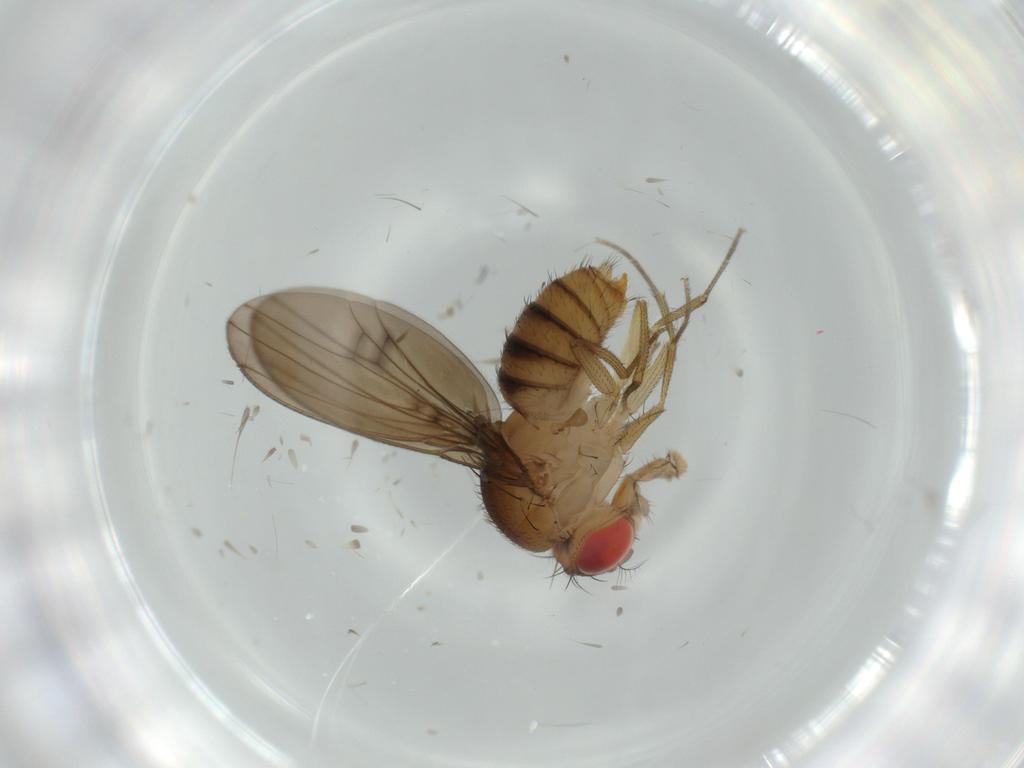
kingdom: Animalia
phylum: Arthropoda
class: Insecta
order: Diptera
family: Drosophilidae
